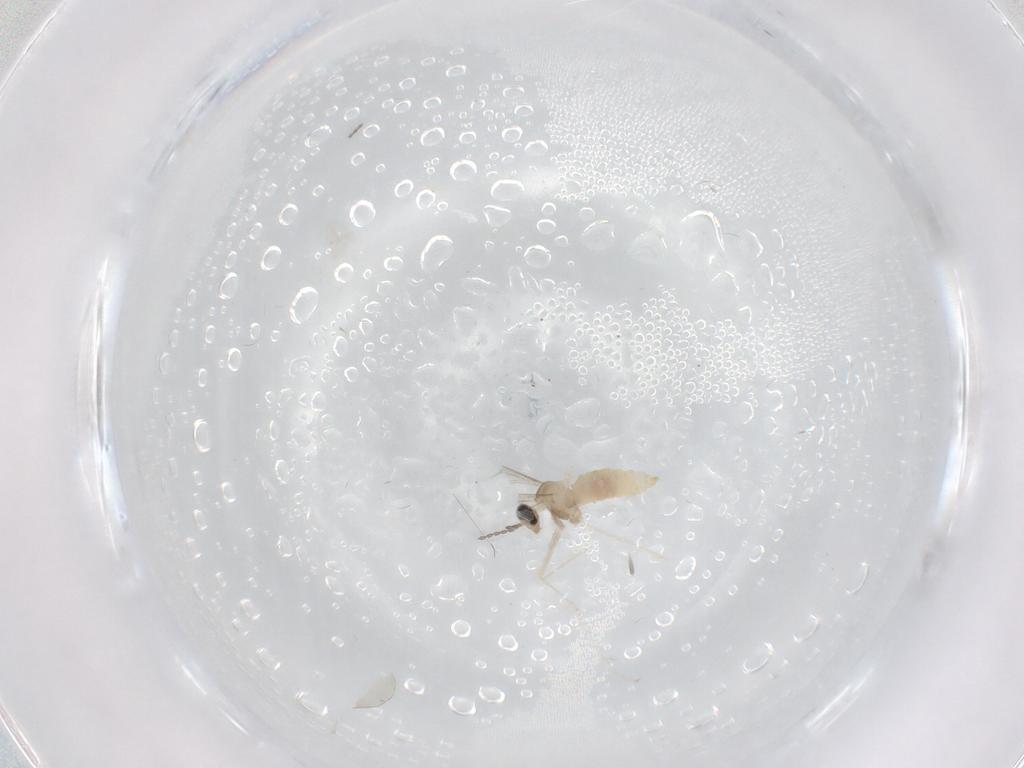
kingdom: Animalia
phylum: Arthropoda
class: Insecta
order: Diptera
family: Cecidomyiidae
